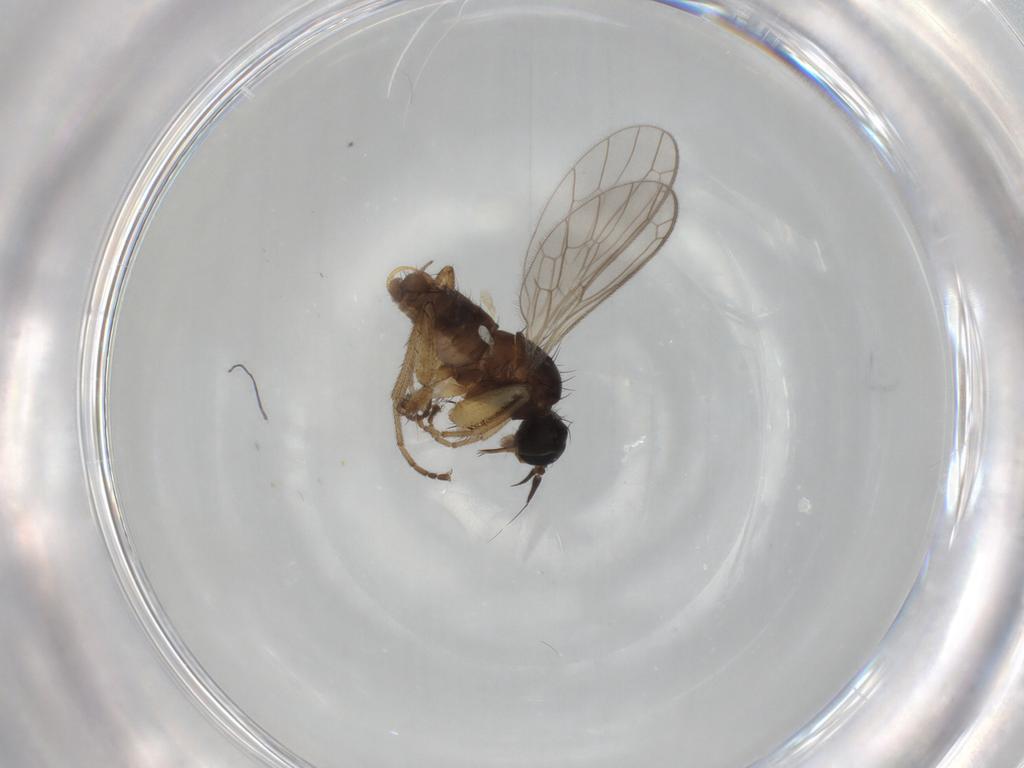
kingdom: Animalia
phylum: Arthropoda
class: Insecta
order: Diptera
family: Empididae
